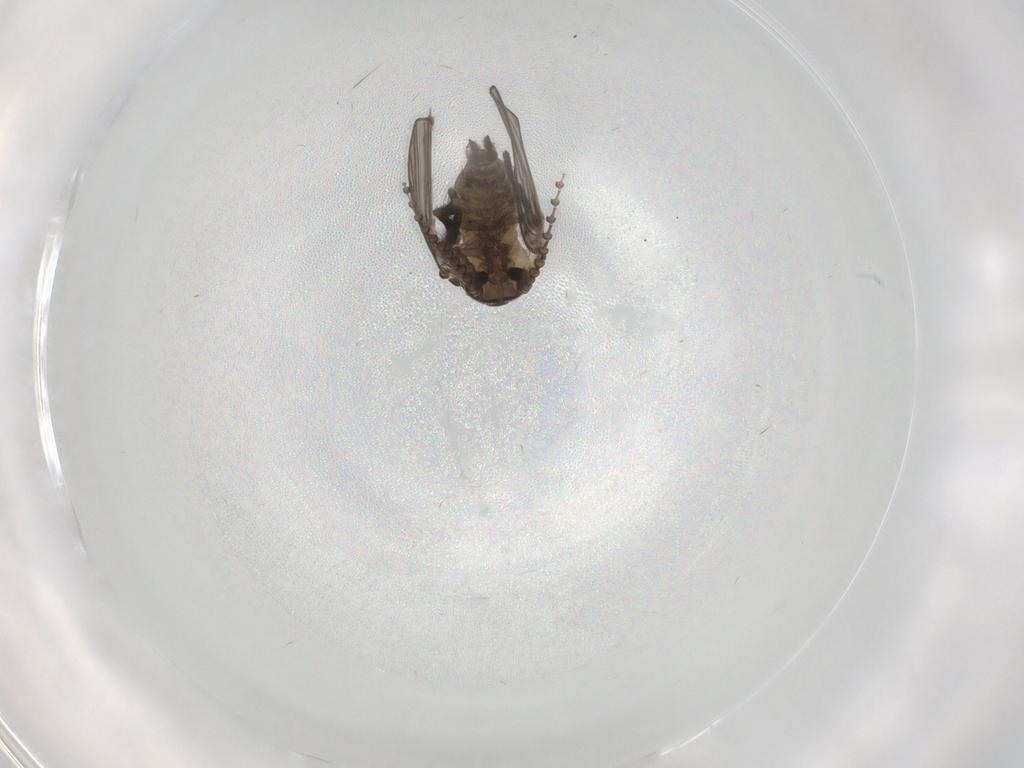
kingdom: Animalia
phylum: Arthropoda
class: Insecta
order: Diptera
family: Psychodidae
